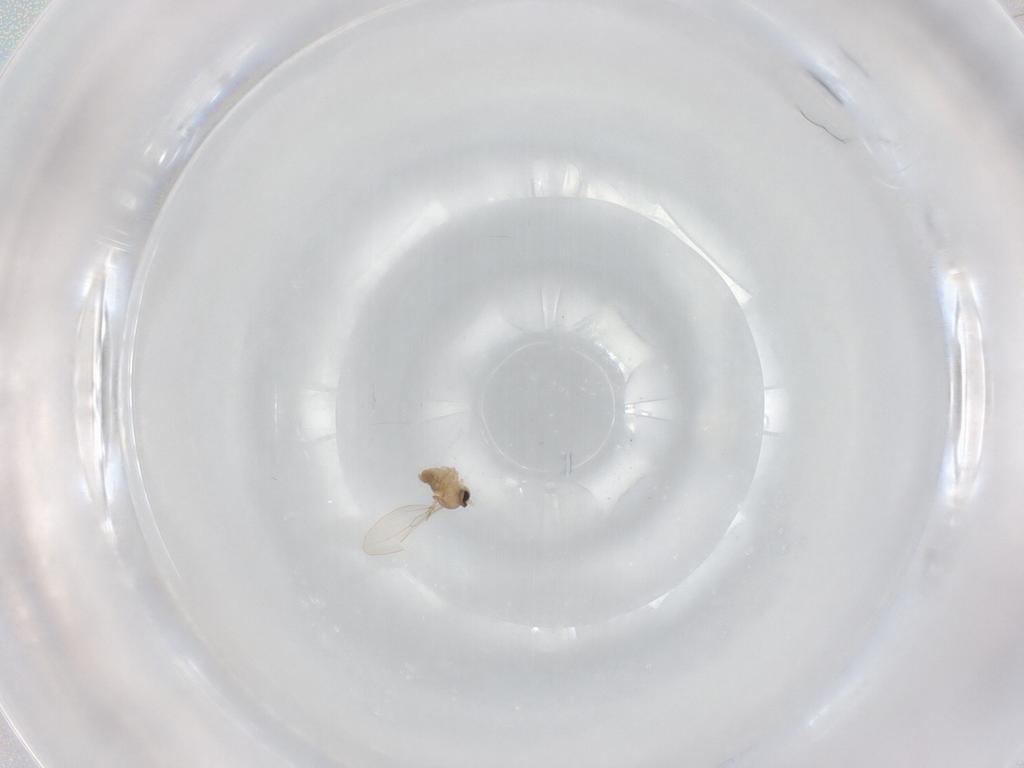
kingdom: Animalia
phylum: Arthropoda
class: Insecta
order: Diptera
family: Cecidomyiidae
